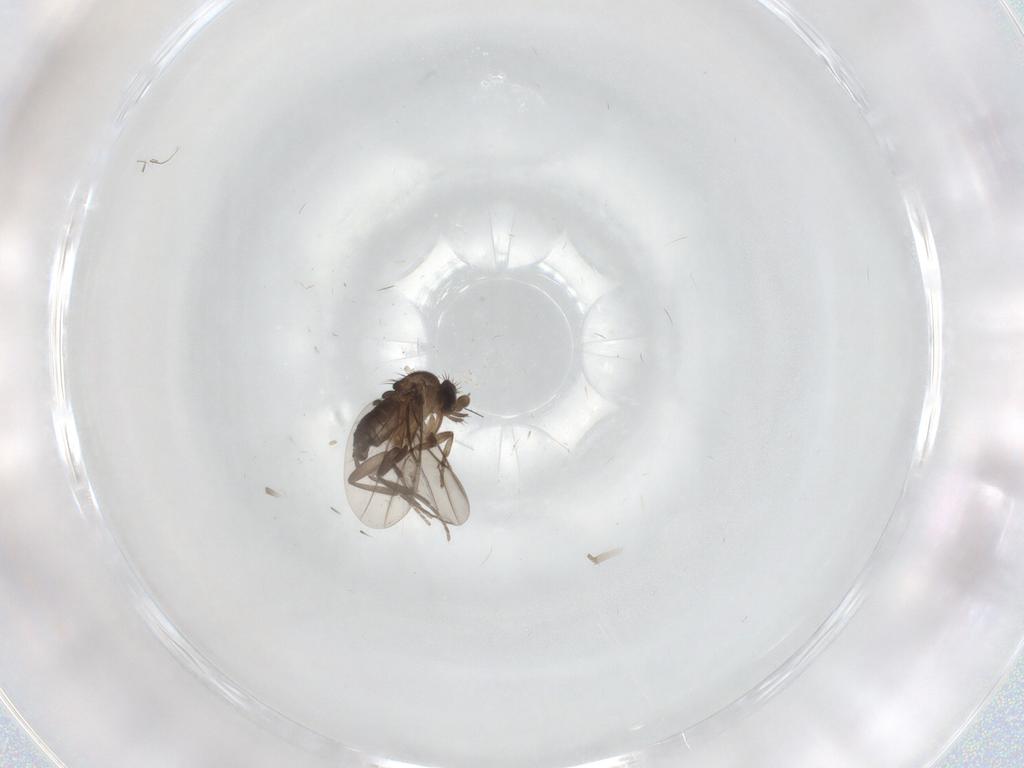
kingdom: Animalia
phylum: Arthropoda
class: Insecta
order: Diptera
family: Phoridae
